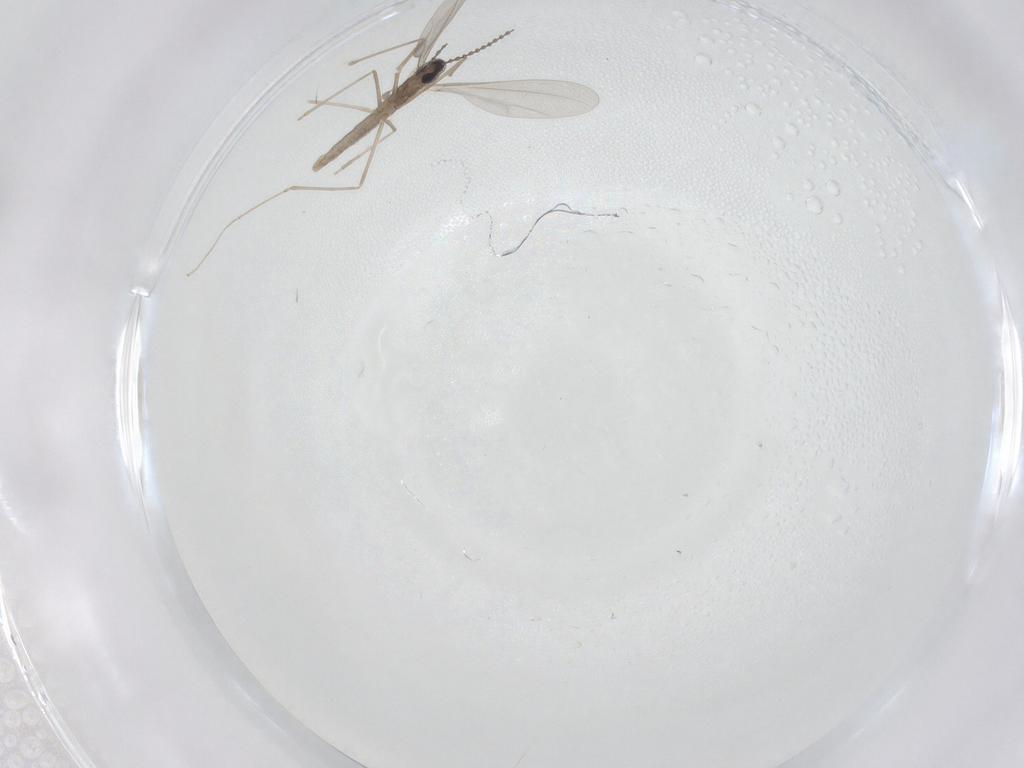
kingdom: Animalia
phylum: Arthropoda
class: Insecta
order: Diptera
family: Cecidomyiidae
